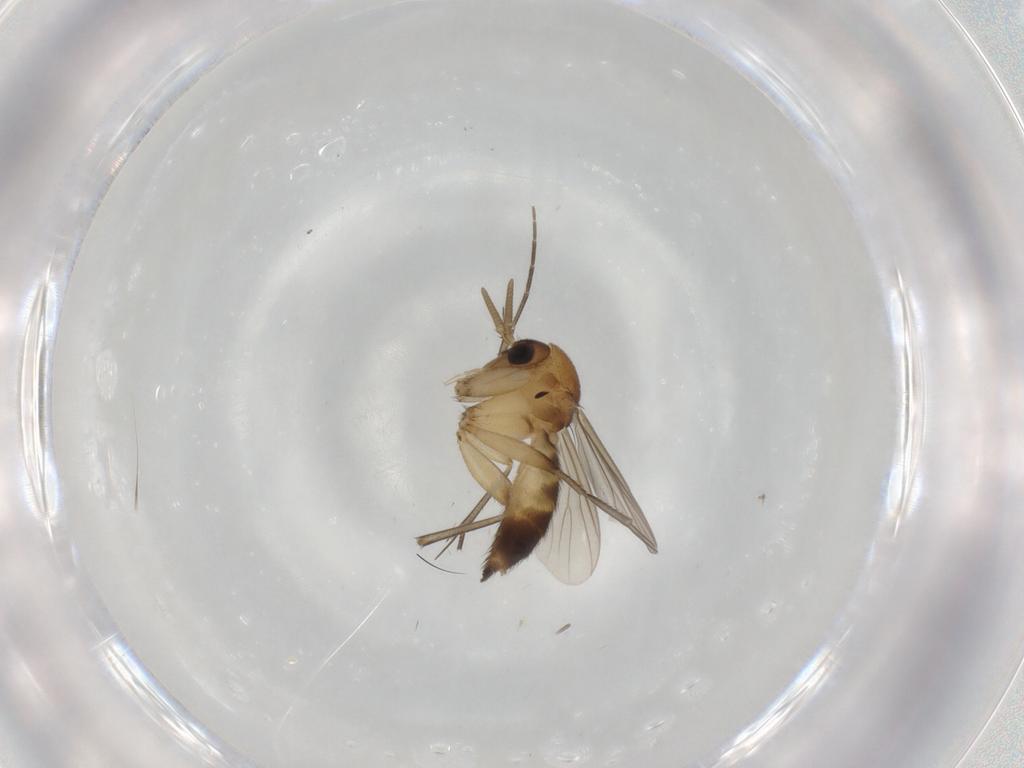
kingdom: Animalia
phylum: Arthropoda
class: Insecta
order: Diptera
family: Mycetophilidae
